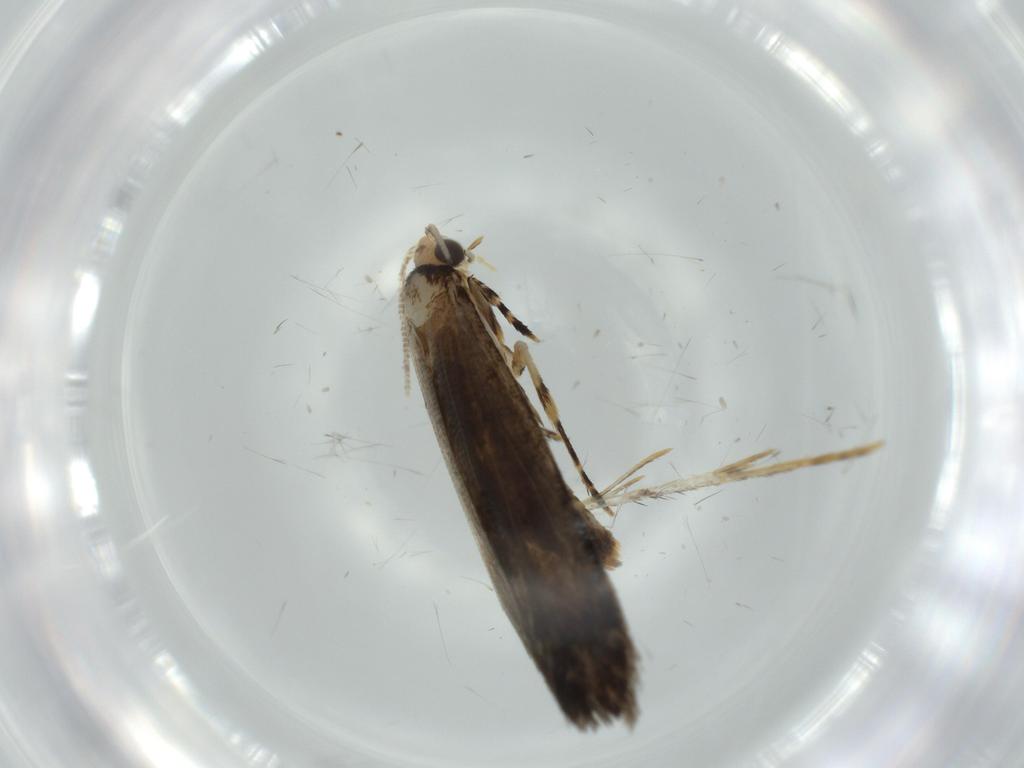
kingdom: Animalia
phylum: Arthropoda
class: Insecta
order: Lepidoptera
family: Meessiidae
